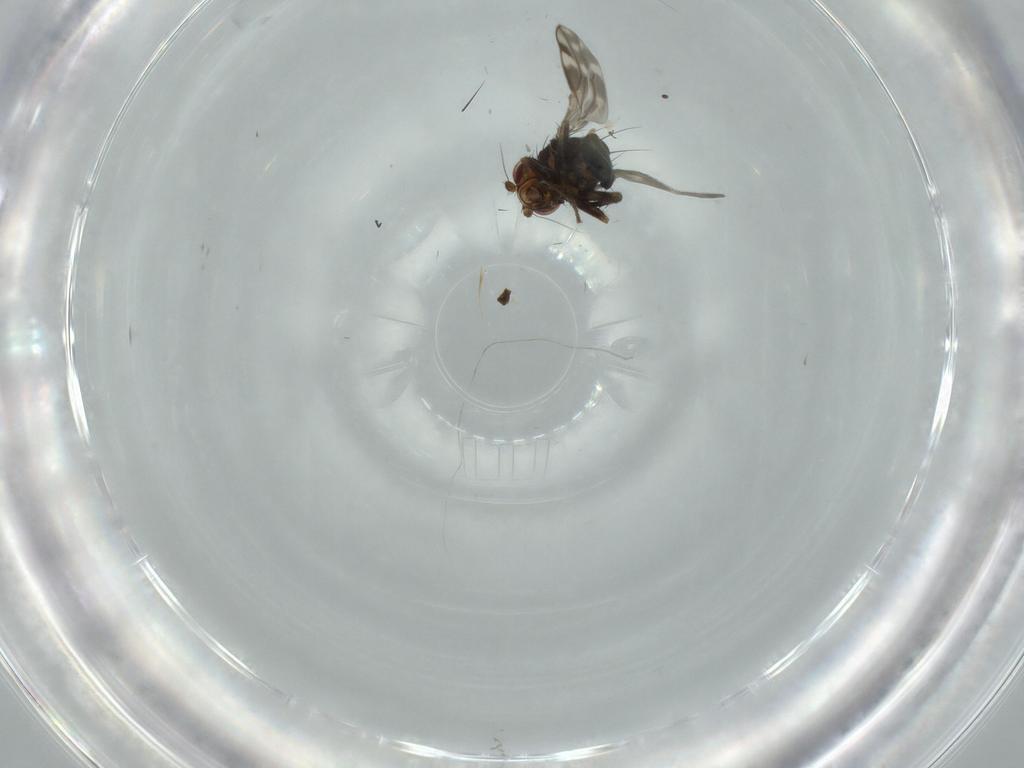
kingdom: Animalia
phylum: Arthropoda
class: Insecta
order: Diptera
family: Sphaeroceridae
